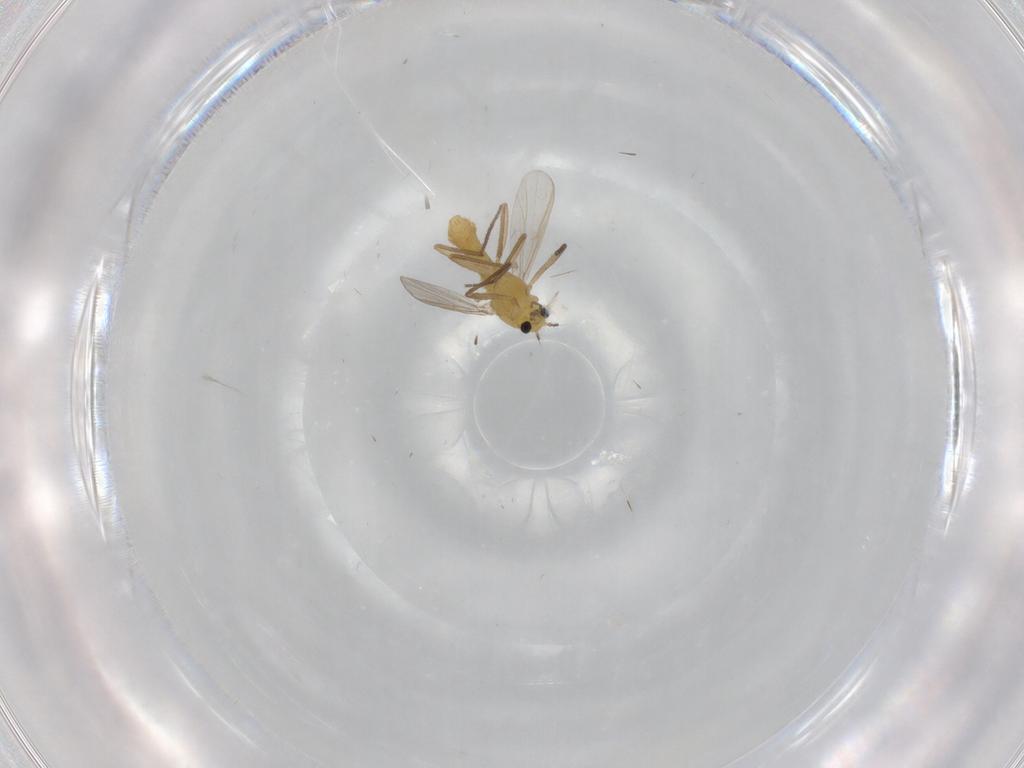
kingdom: Animalia
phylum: Arthropoda
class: Insecta
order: Diptera
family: Chironomidae
